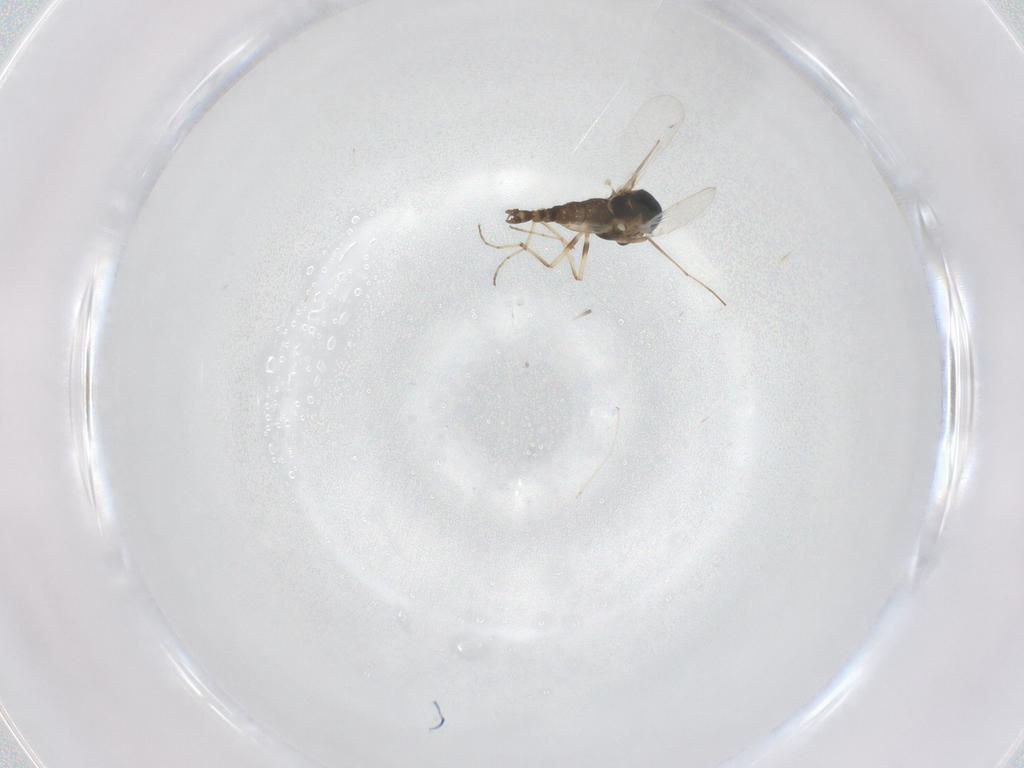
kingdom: Animalia
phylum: Arthropoda
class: Insecta
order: Diptera
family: Chironomidae
